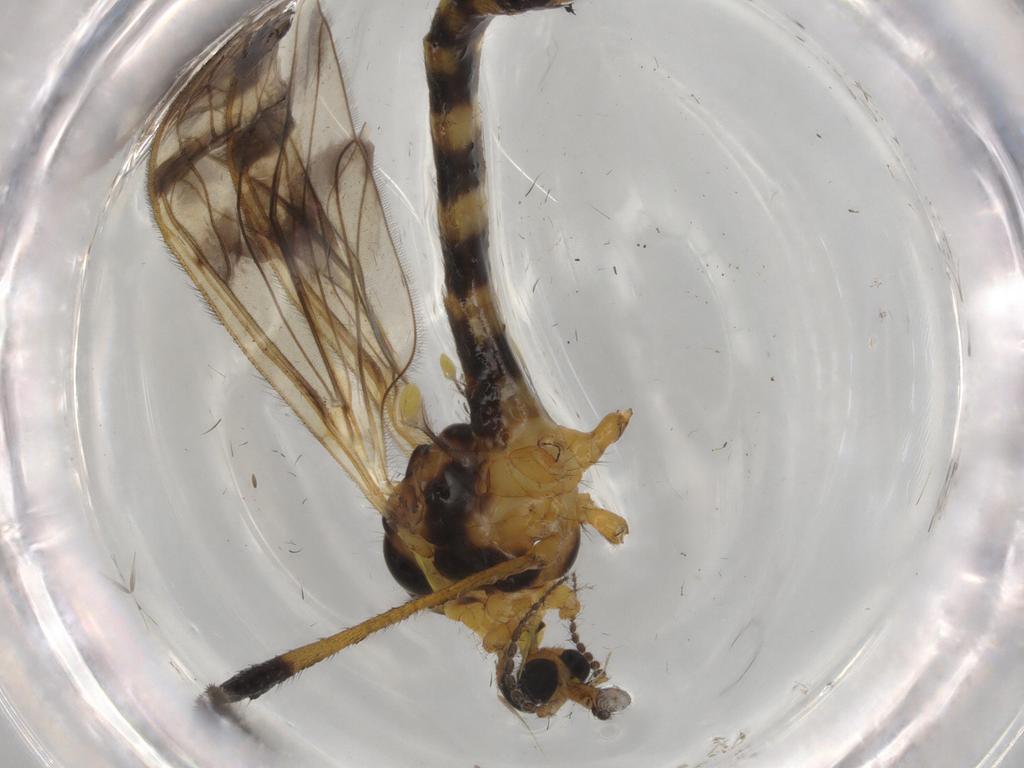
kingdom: Animalia
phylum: Arthropoda
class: Insecta
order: Diptera
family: Limoniidae
